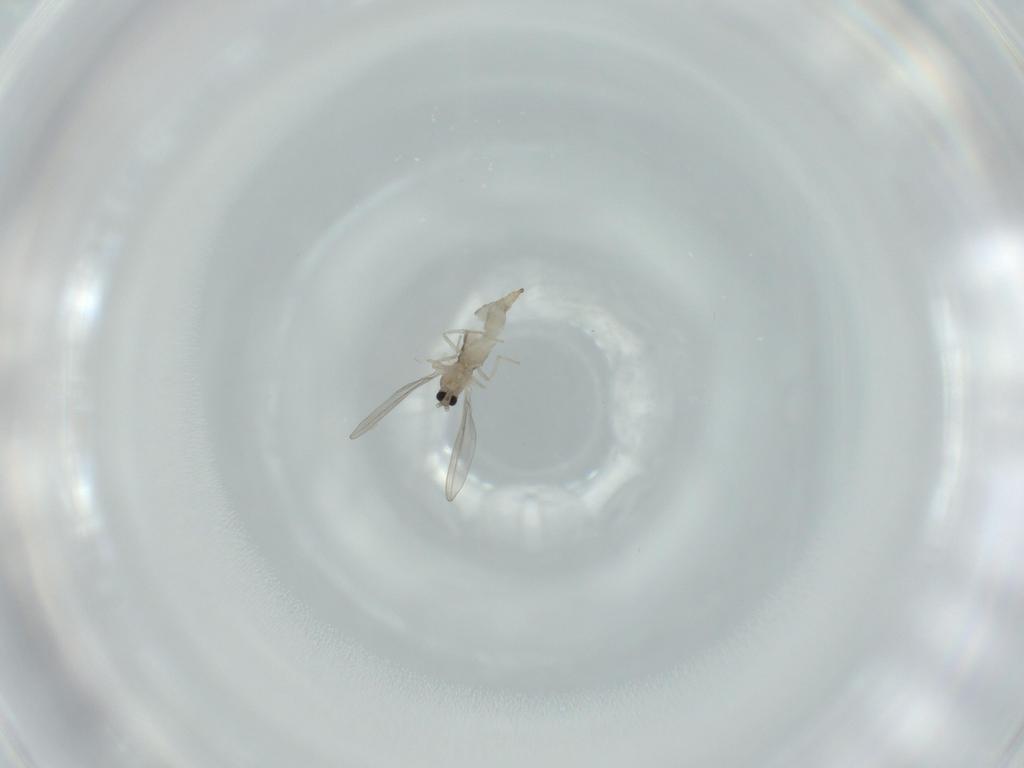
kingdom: Animalia
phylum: Arthropoda
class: Insecta
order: Diptera
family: Cecidomyiidae
